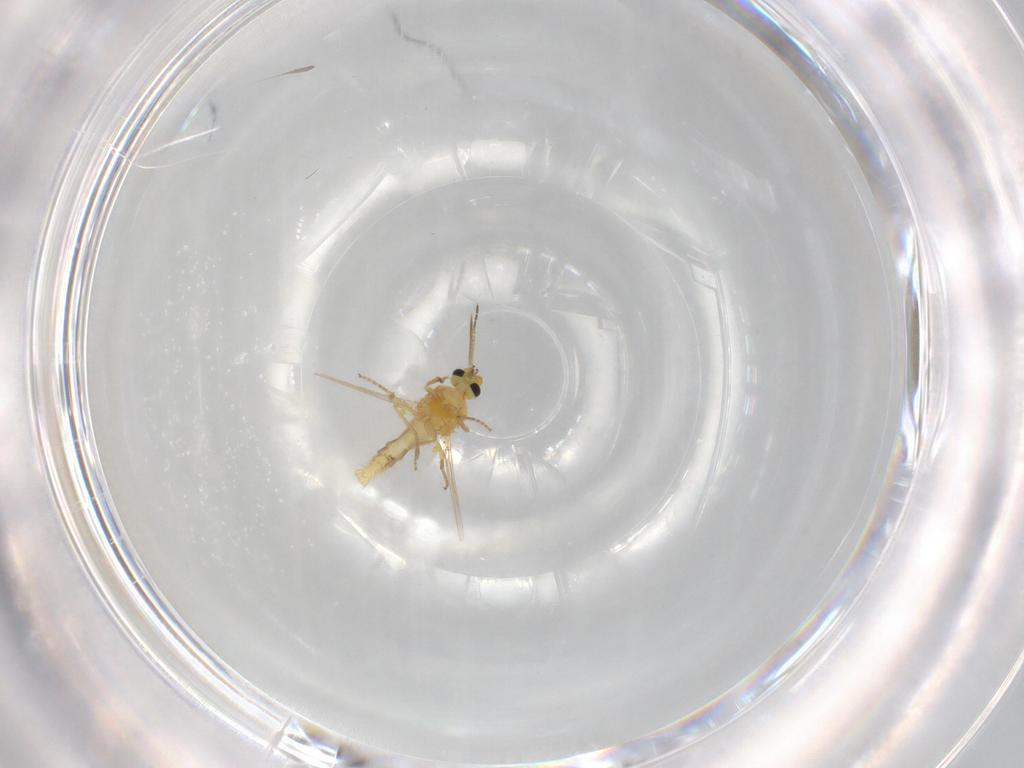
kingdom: Animalia
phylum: Arthropoda
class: Insecta
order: Diptera
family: Ceratopogonidae
